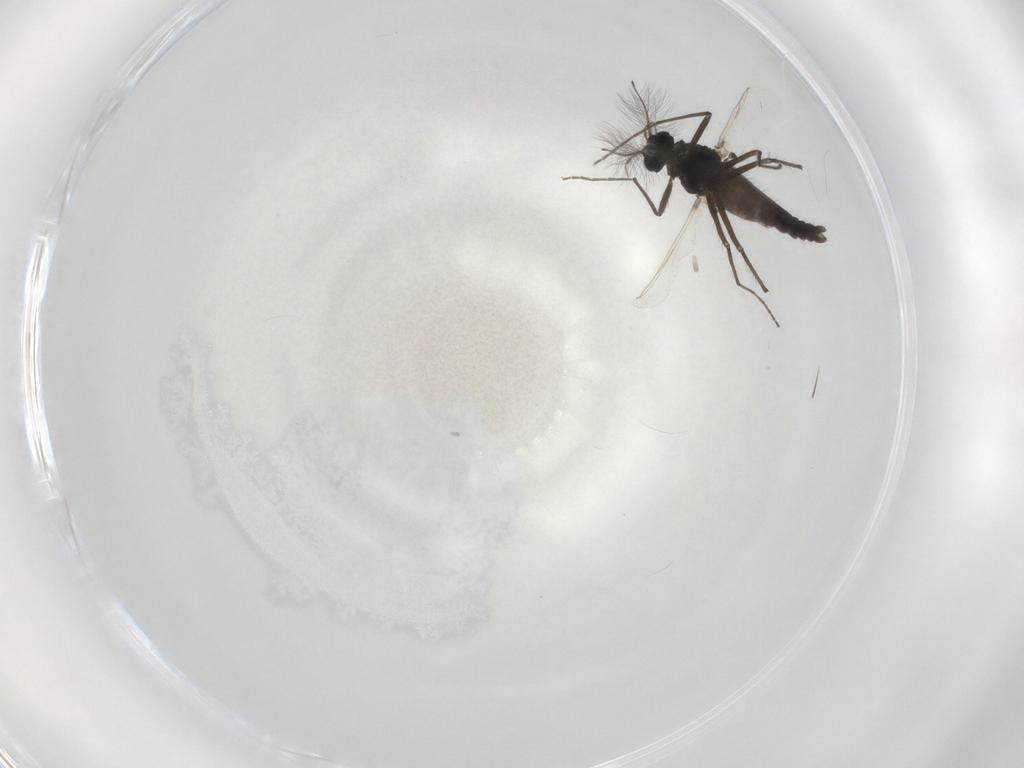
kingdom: Animalia
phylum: Arthropoda
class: Insecta
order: Diptera
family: Chironomidae
